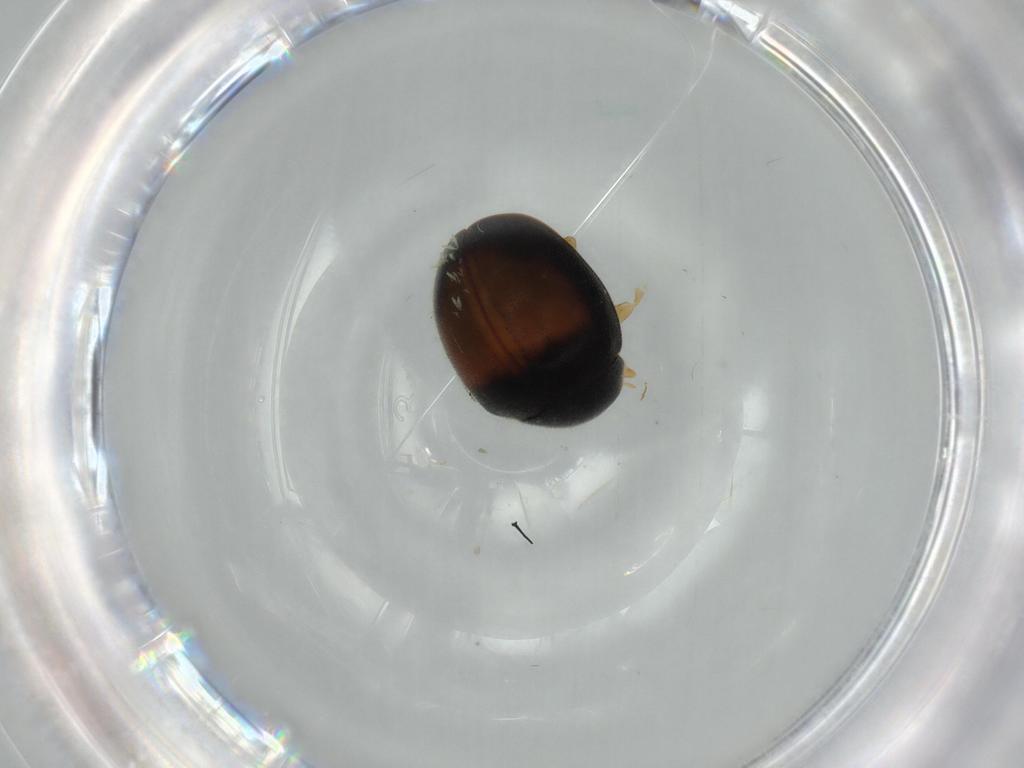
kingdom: Animalia
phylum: Arthropoda
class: Insecta
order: Coleoptera
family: Coccinellidae
